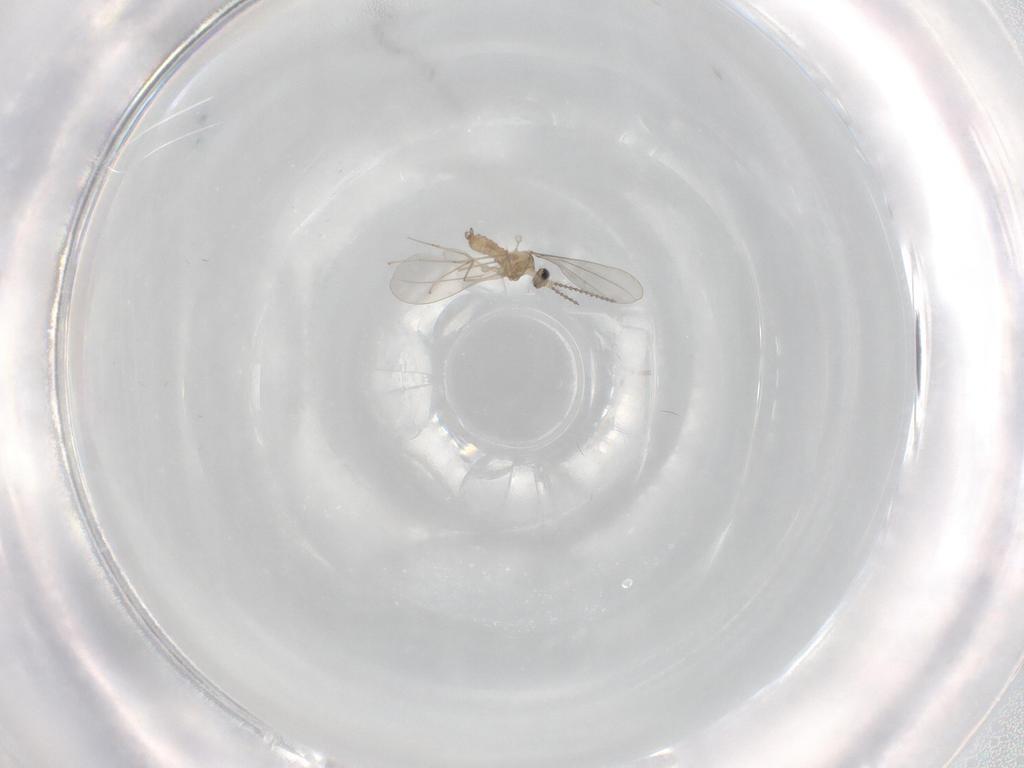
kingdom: Animalia
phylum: Arthropoda
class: Insecta
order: Diptera
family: Cecidomyiidae
